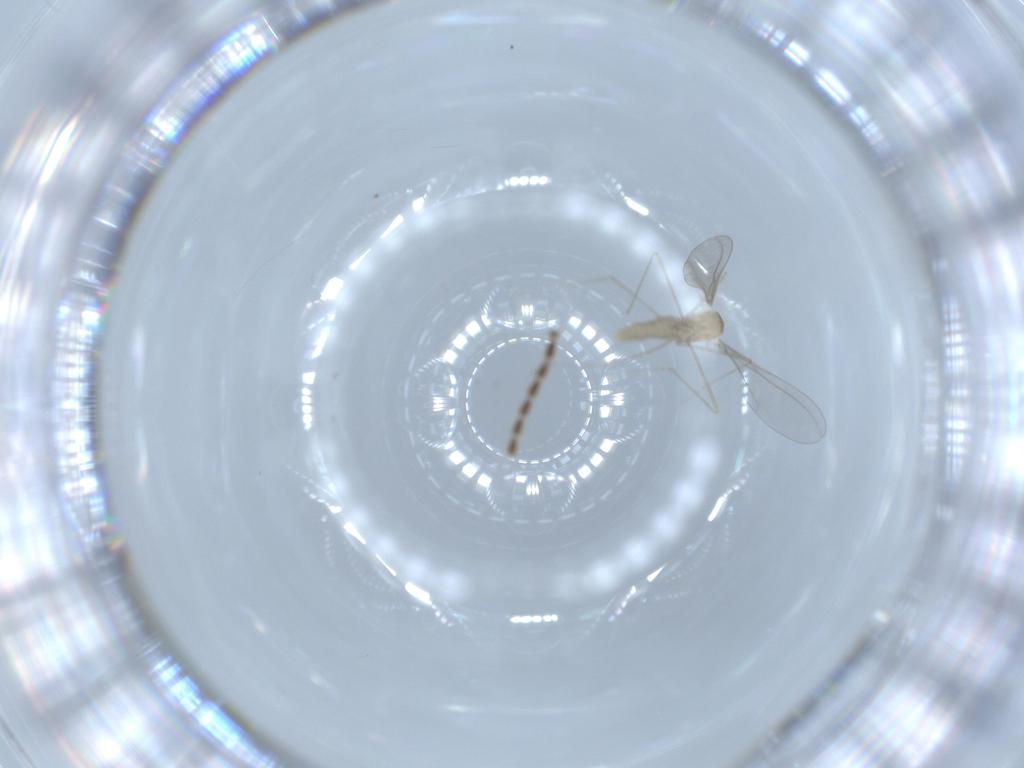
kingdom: Animalia
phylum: Arthropoda
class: Insecta
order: Diptera
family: Cecidomyiidae
